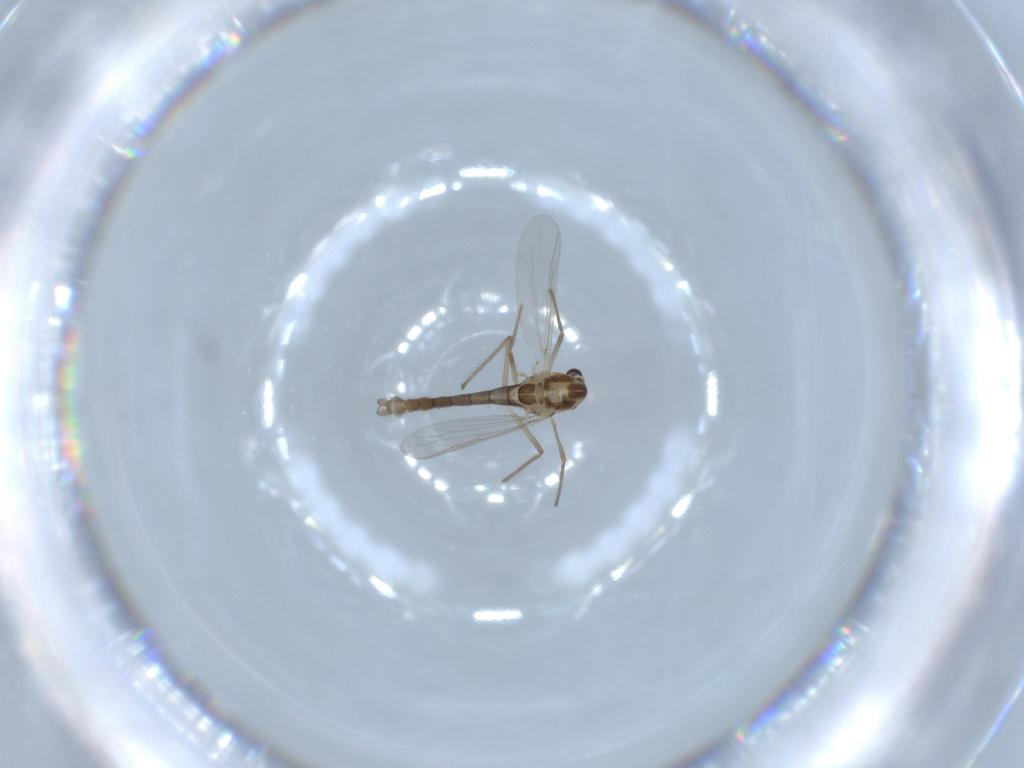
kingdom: Animalia
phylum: Arthropoda
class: Insecta
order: Diptera
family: Chironomidae
